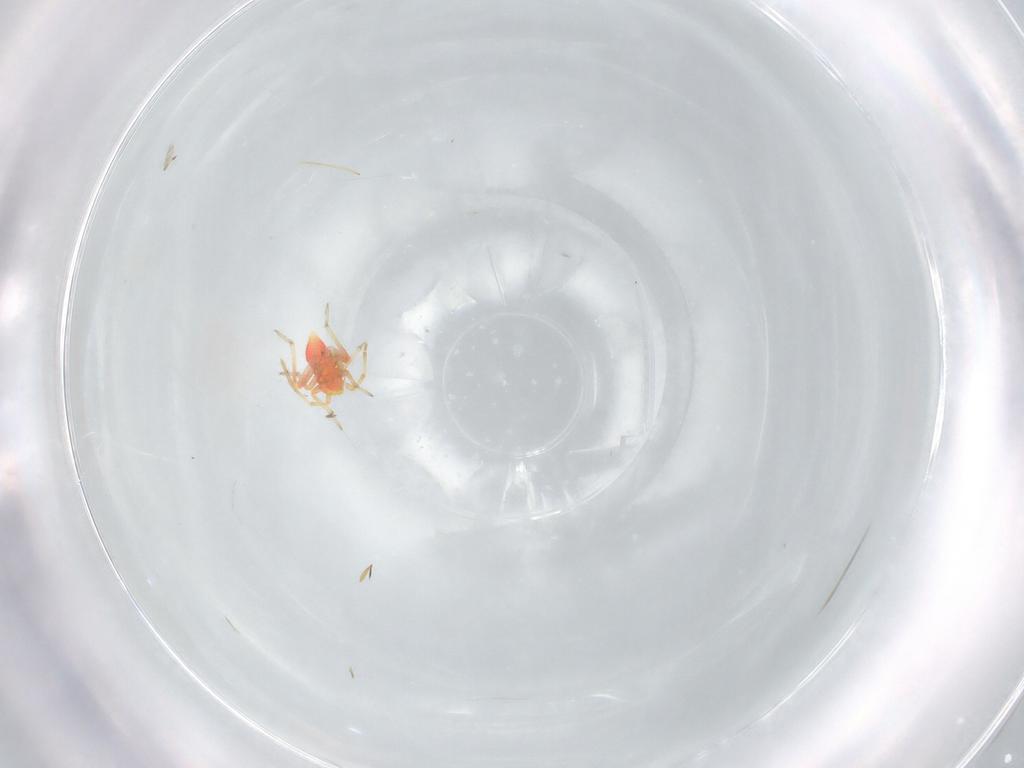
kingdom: Animalia
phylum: Arthropoda
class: Insecta
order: Hemiptera
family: Miridae
